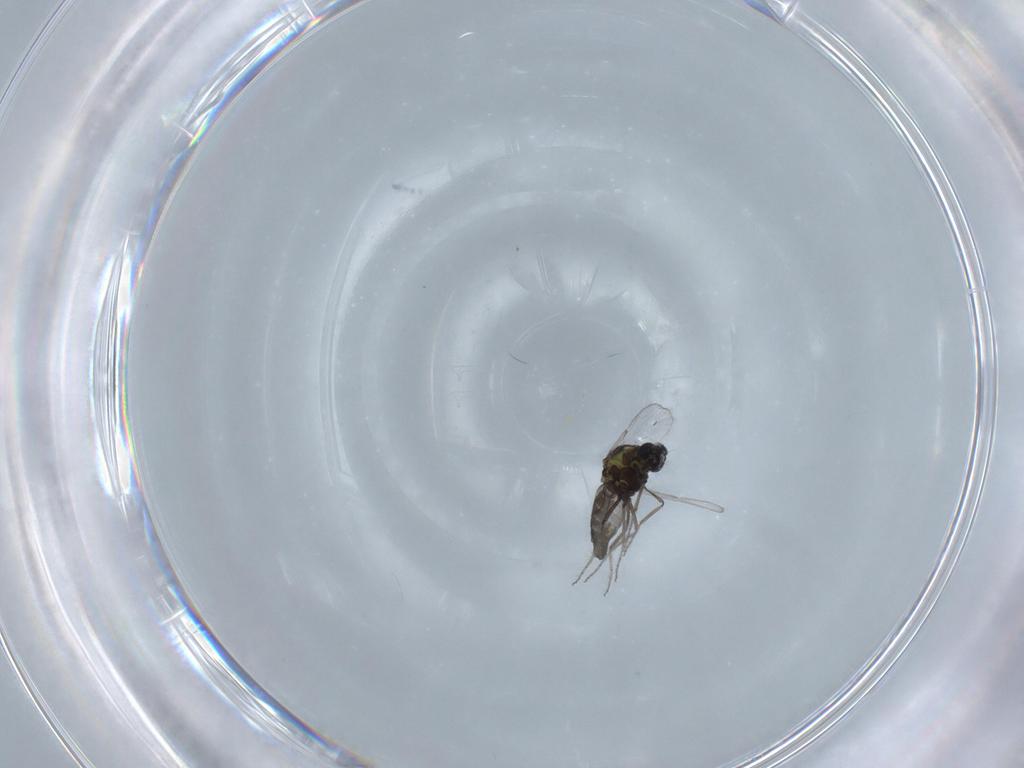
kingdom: Animalia
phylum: Arthropoda
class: Insecta
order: Diptera
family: Ceratopogonidae
